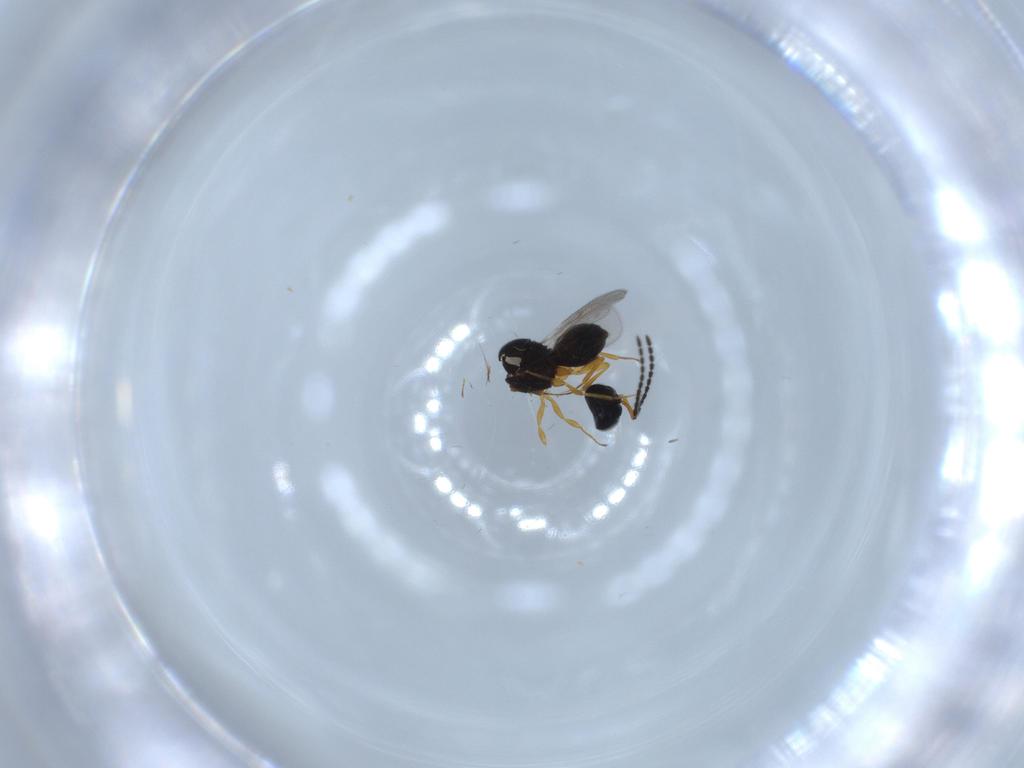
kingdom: Animalia
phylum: Arthropoda
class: Insecta
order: Hymenoptera
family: Scelionidae
